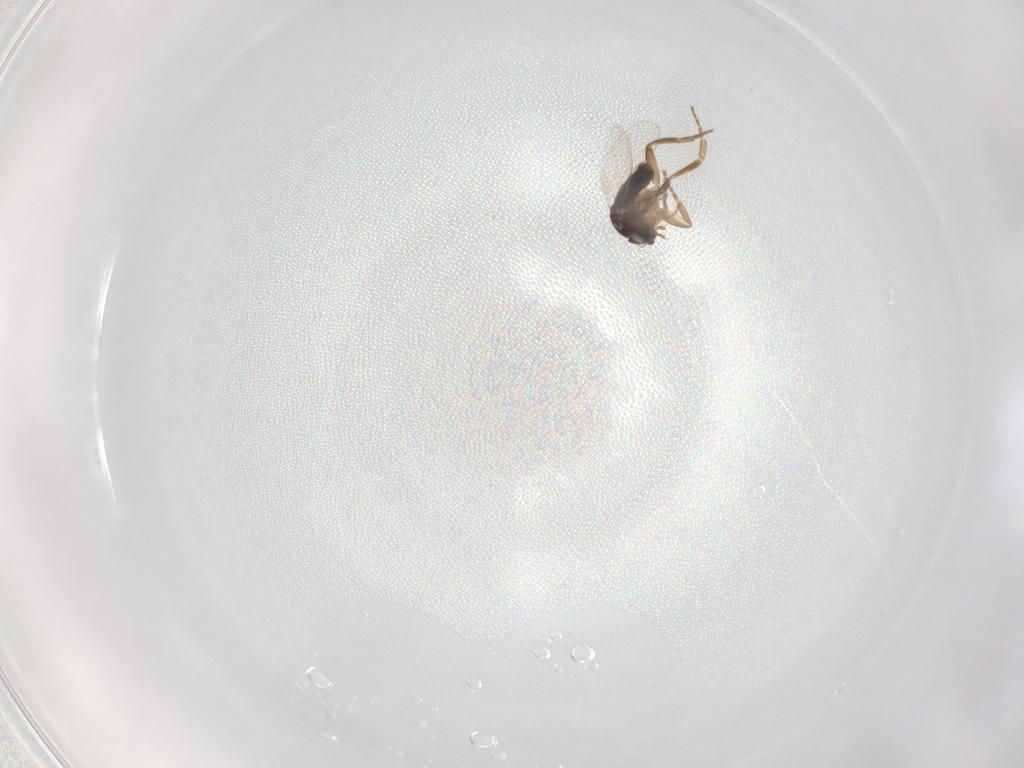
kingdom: Animalia
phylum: Arthropoda
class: Insecta
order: Diptera
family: Phoridae
